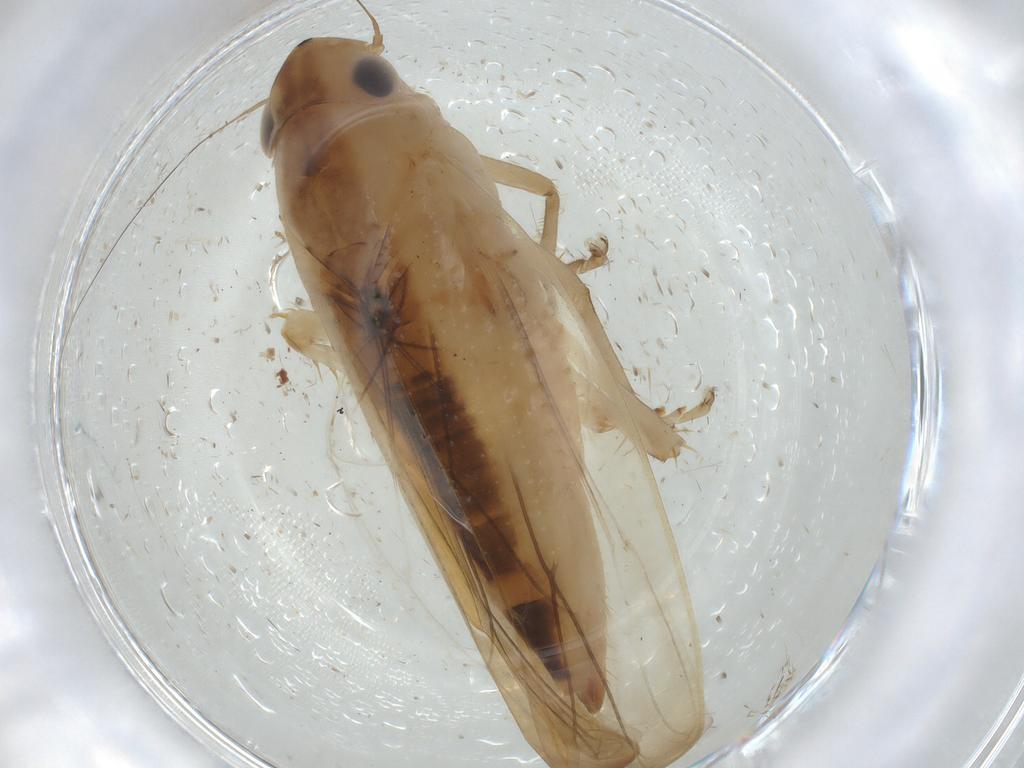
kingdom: Animalia
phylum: Arthropoda
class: Insecta
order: Hemiptera
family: Cicadellidae
